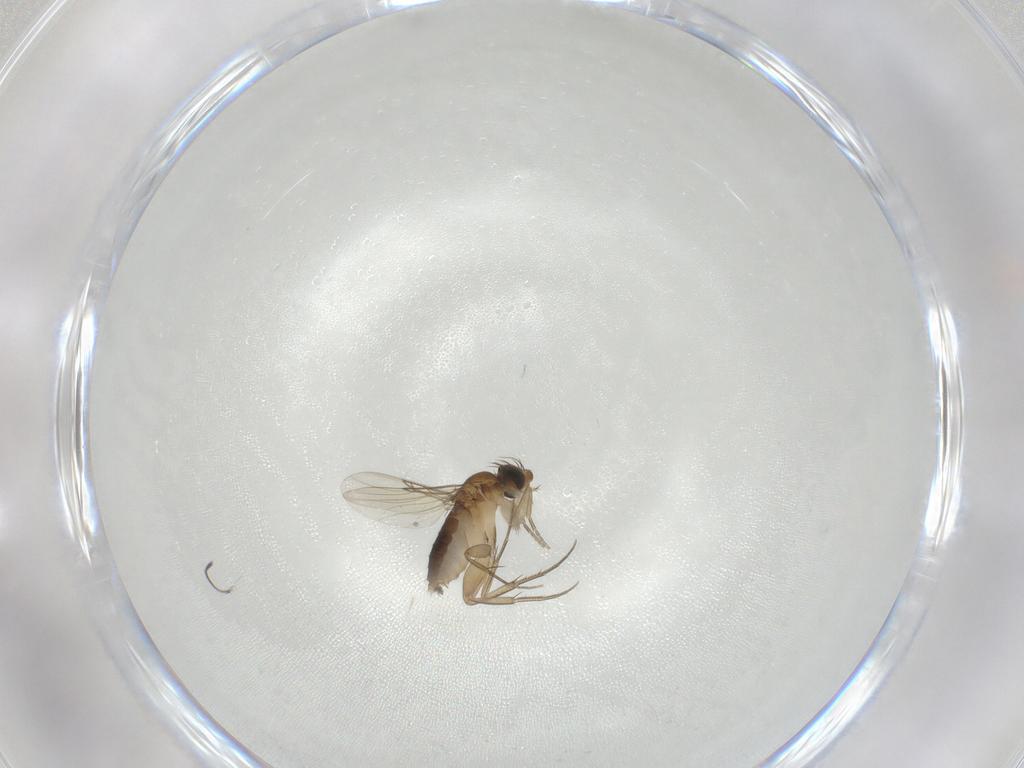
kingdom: Animalia
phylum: Arthropoda
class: Insecta
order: Diptera
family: Phoridae
